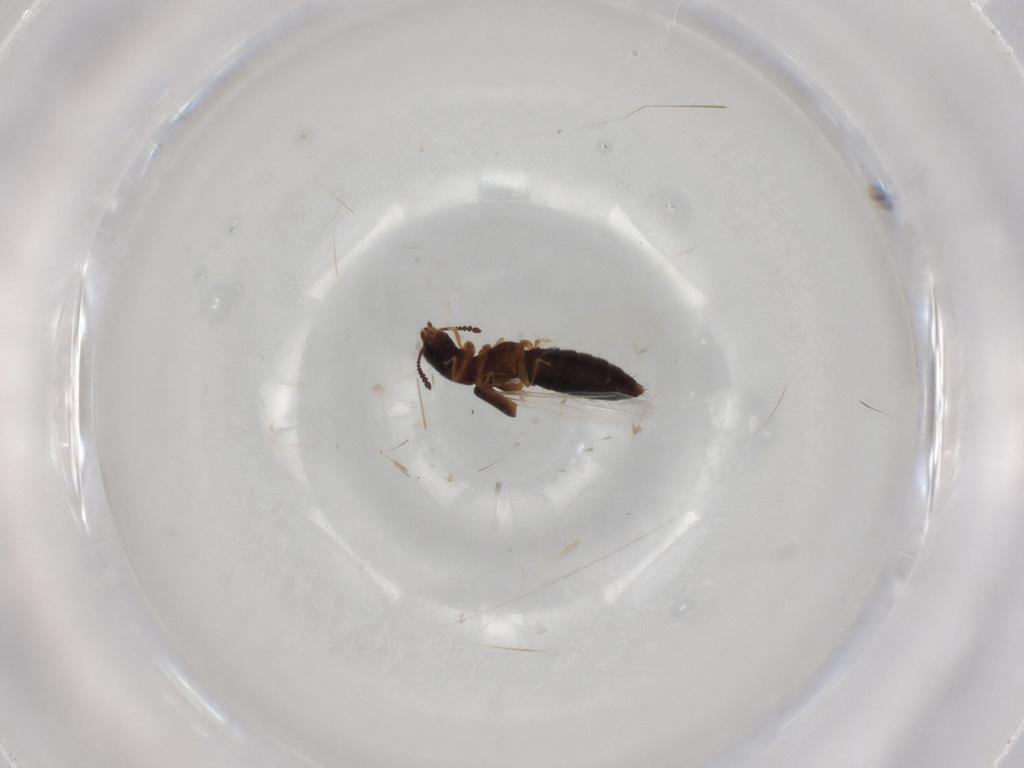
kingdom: Animalia
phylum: Arthropoda
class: Insecta
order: Coleoptera
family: Staphylinidae
